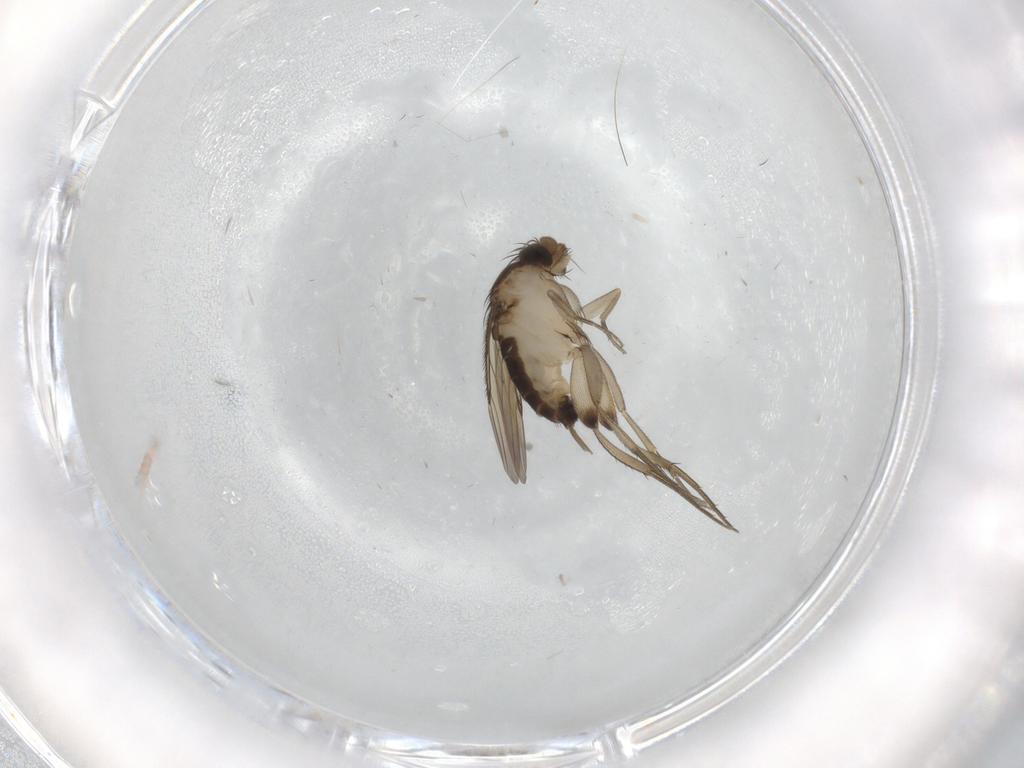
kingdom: Animalia
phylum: Arthropoda
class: Insecta
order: Diptera
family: Phoridae
